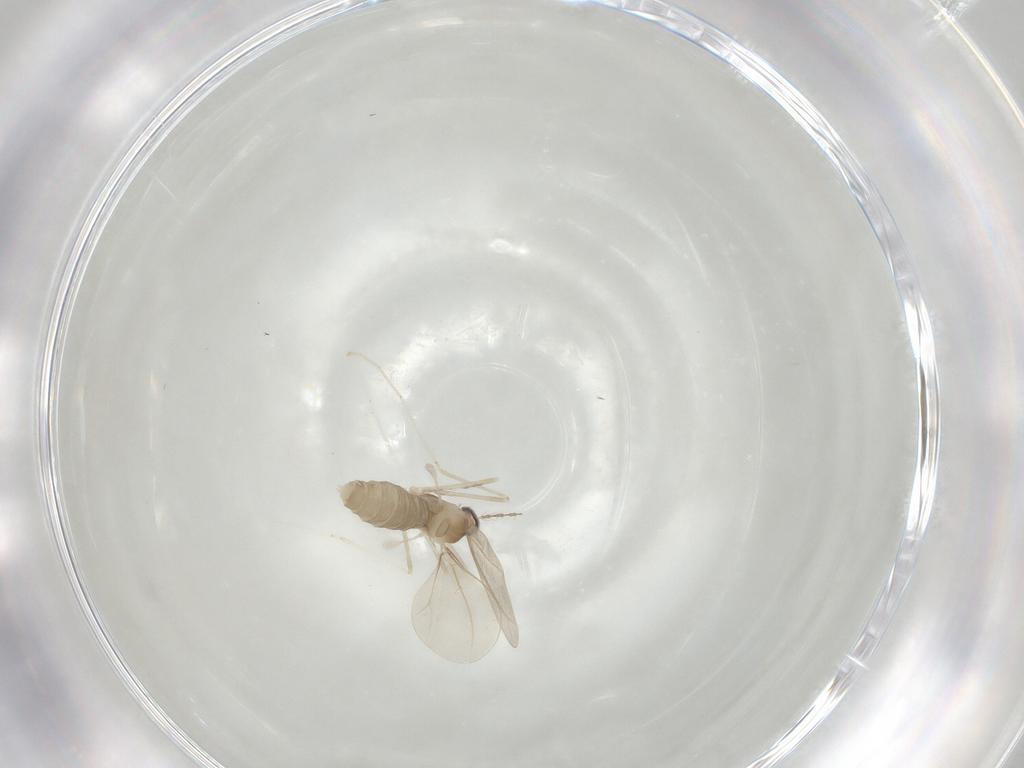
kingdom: Animalia
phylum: Arthropoda
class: Insecta
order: Diptera
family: Cecidomyiidae
